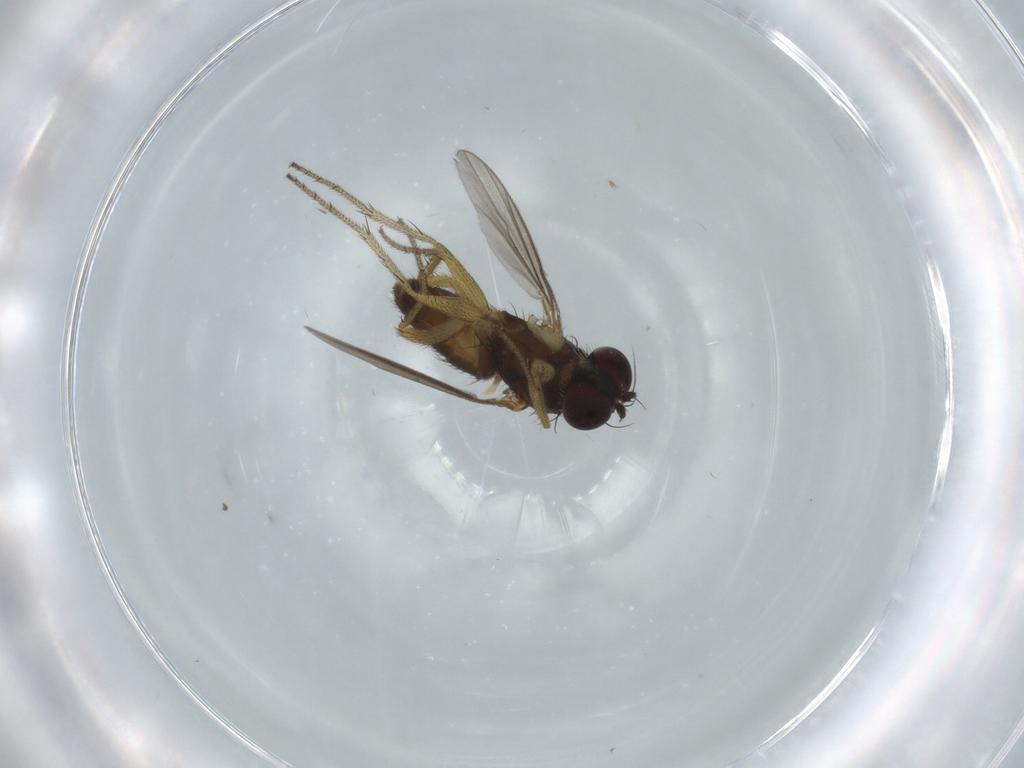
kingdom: Animalia
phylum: Arthropoda
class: Insecta
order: Diptera
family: Dolichopodidae
